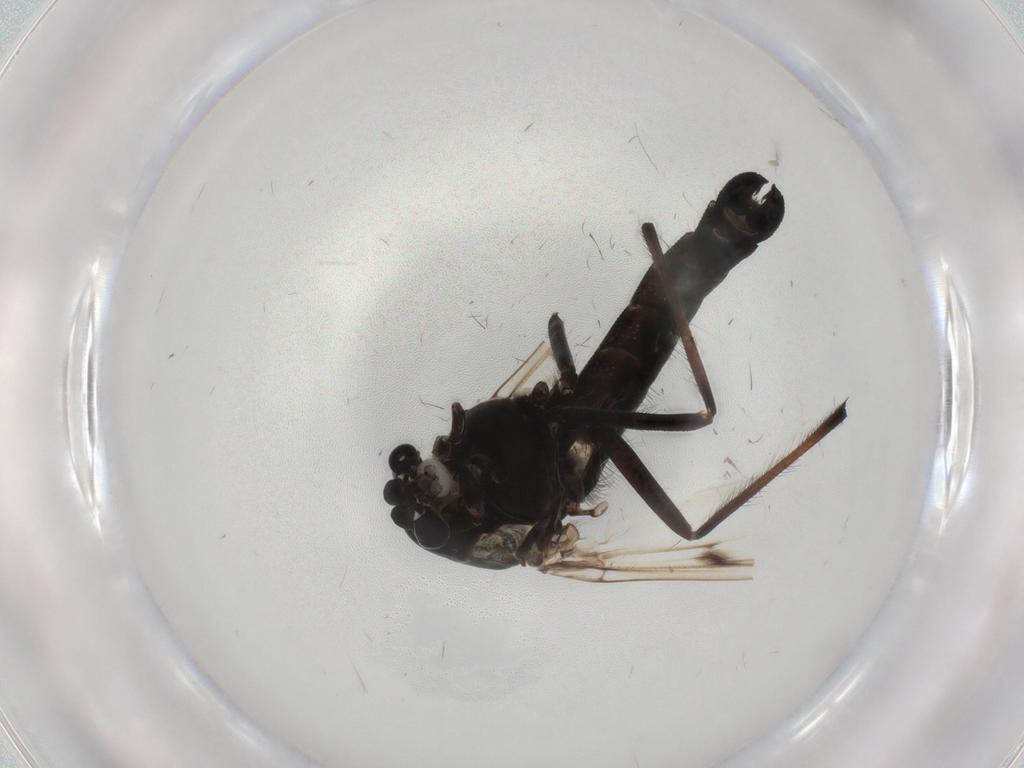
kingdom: Animalia
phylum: Arthropoda
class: Insecta
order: Diptera
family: Chironomidae
